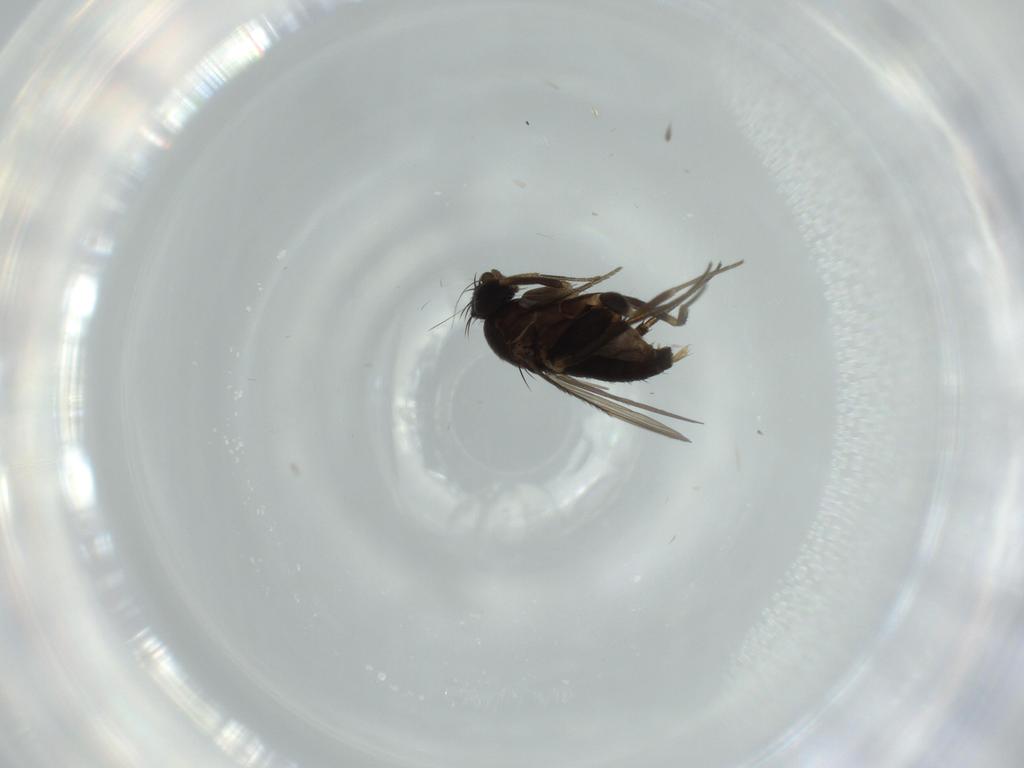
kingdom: Animalia
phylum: Arthropoda
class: Insecta
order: Diptera
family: Phoridae
